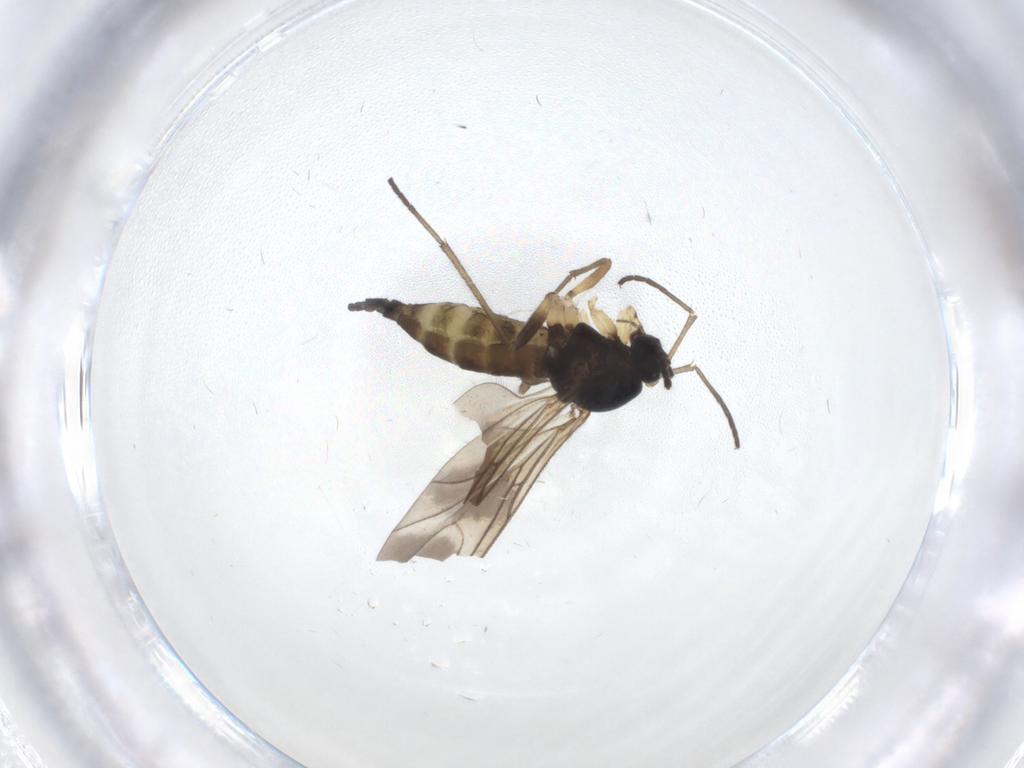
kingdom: Animalia
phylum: Arthropoda
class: Insecta
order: Diptera
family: Sciaridae
